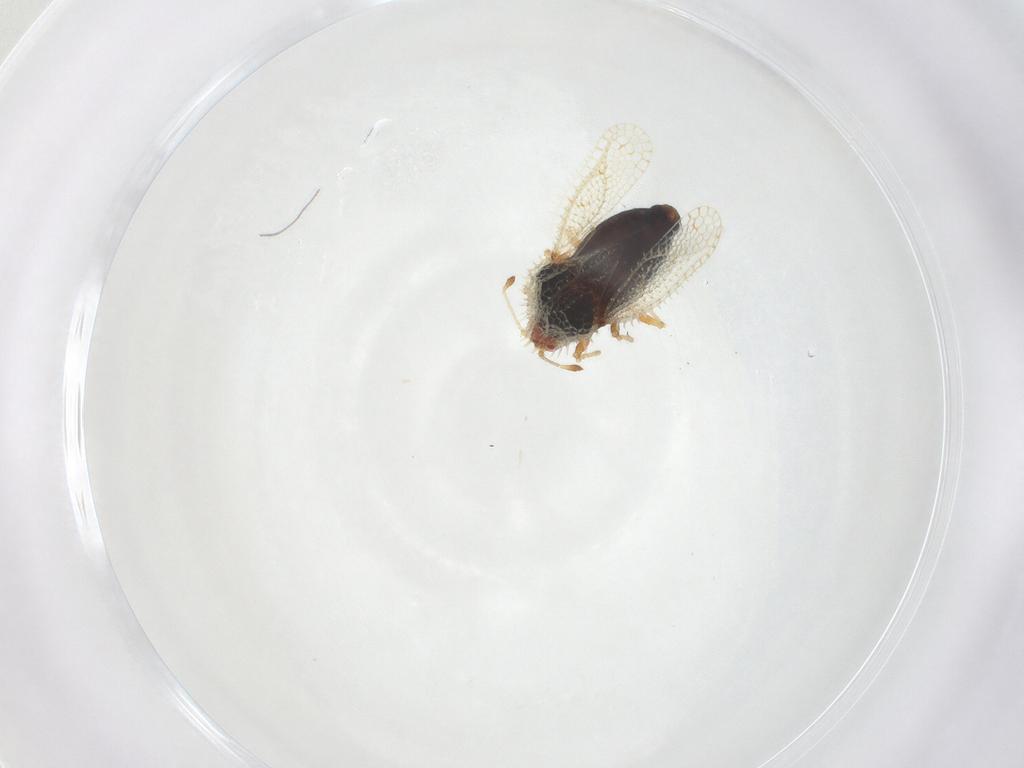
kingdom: Animalia
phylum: Arthropoda
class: Insecta
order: Hemiptera
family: Tingidae
